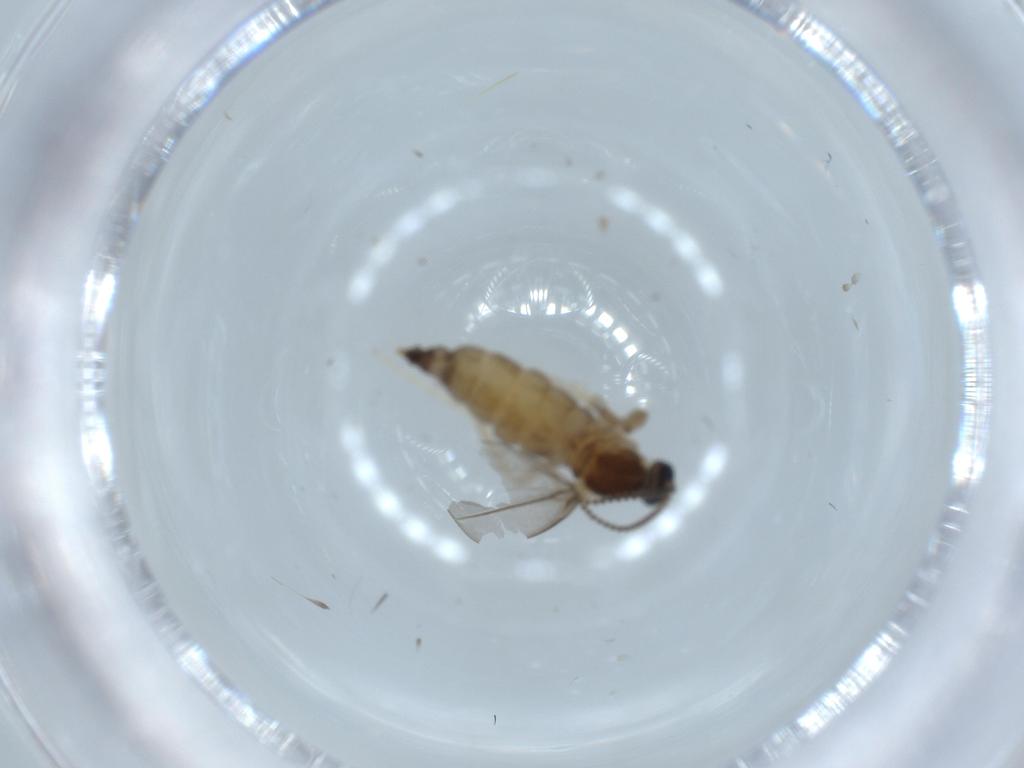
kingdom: Animalia
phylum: Arthropoda
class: Insecta
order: Diptera
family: Cecidomyiidae
